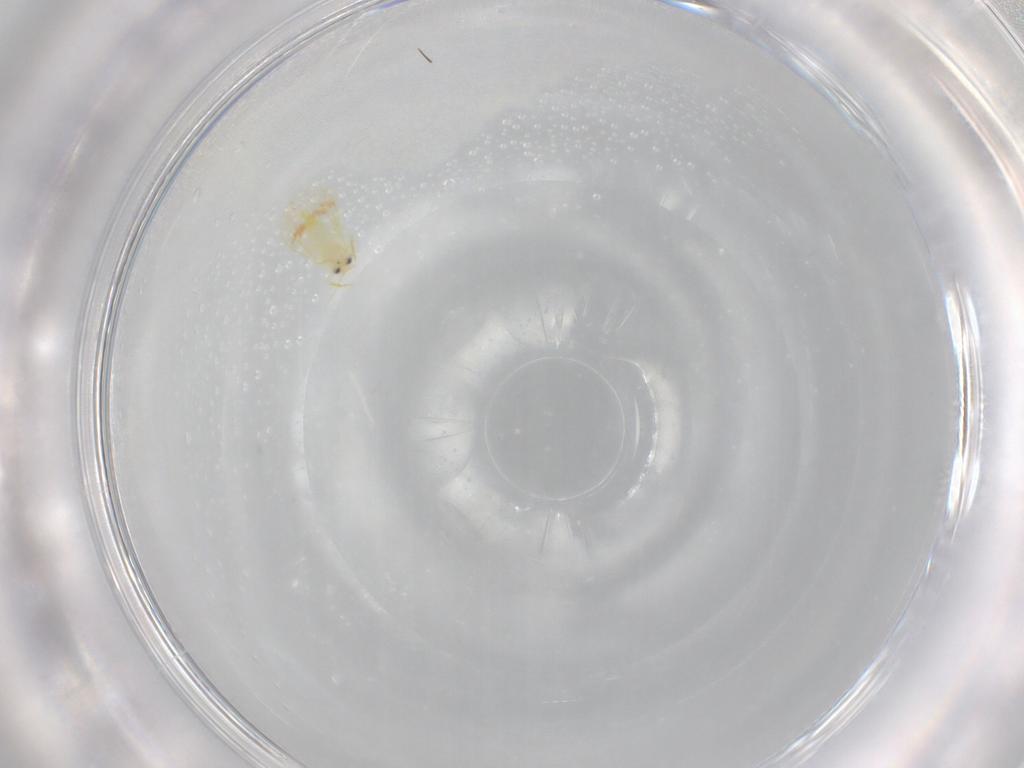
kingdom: Animalia
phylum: Arthropoda
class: Insecta
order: Hemiptera
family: Aleyrodidae
